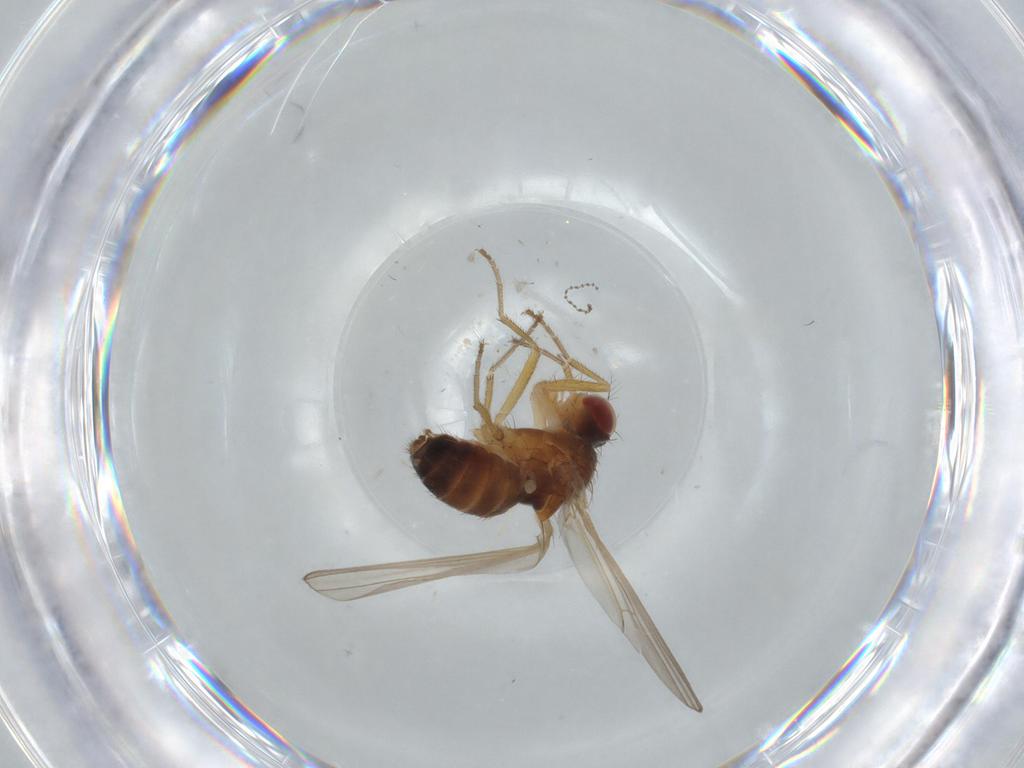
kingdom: Animalia
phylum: Arthropoda
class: Insecta
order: Diptera
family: Drosophilidae
